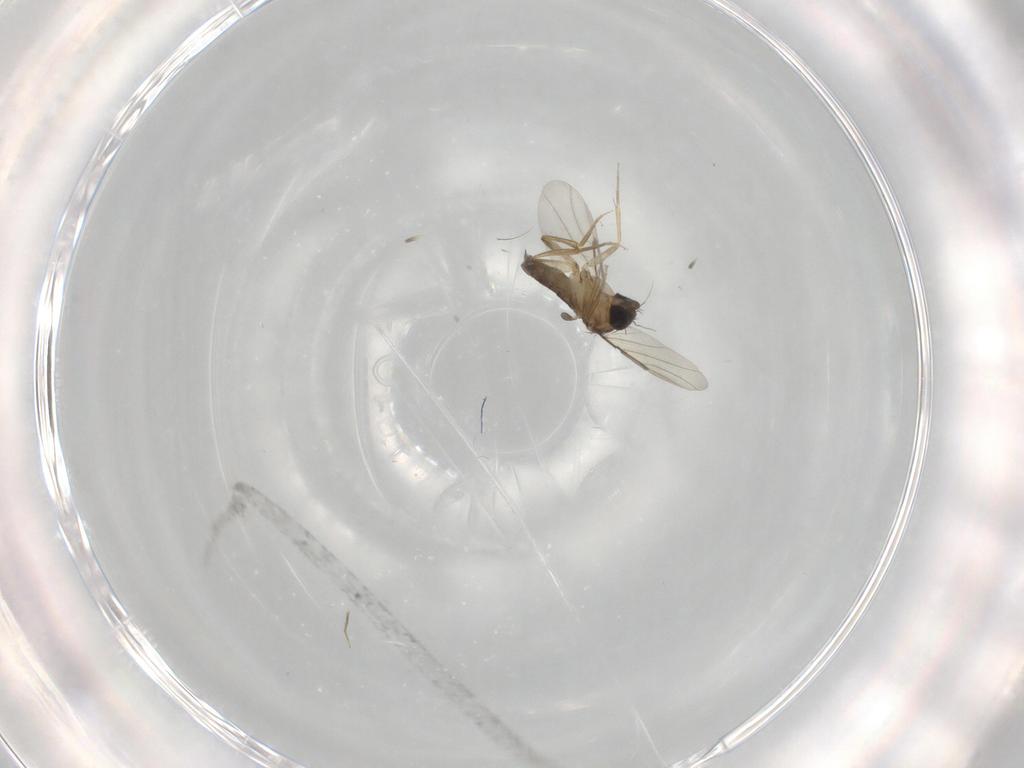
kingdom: Animalia
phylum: Arthropoda
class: Insecta
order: Diptera
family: Phoridae
